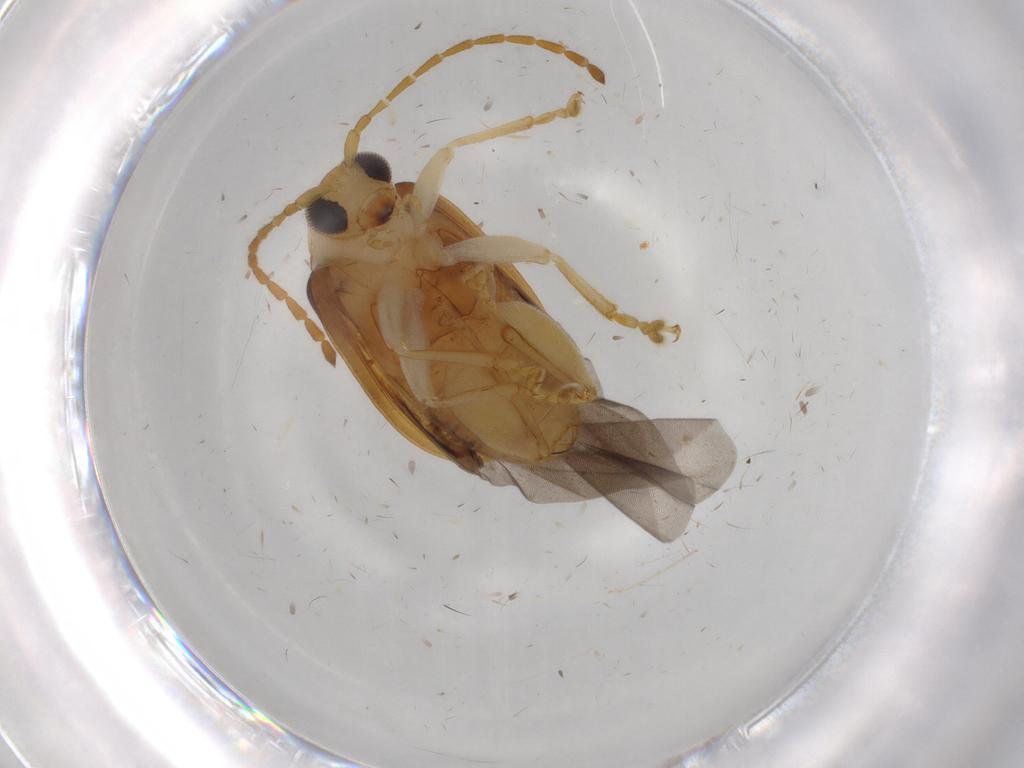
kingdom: Animalia
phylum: Arthropoda
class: Insecta
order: Coleoptera
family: Chrysomelidae
